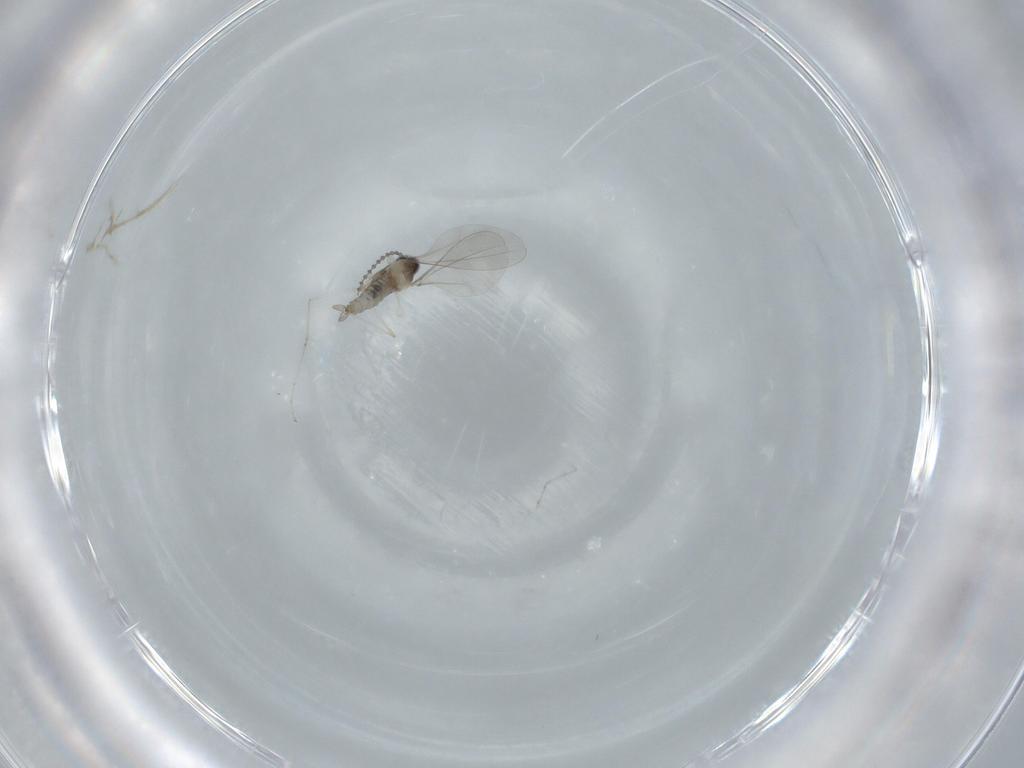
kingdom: Animalia
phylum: Arthropoda
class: Insecta
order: Diptera
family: Cecidomyiidae
